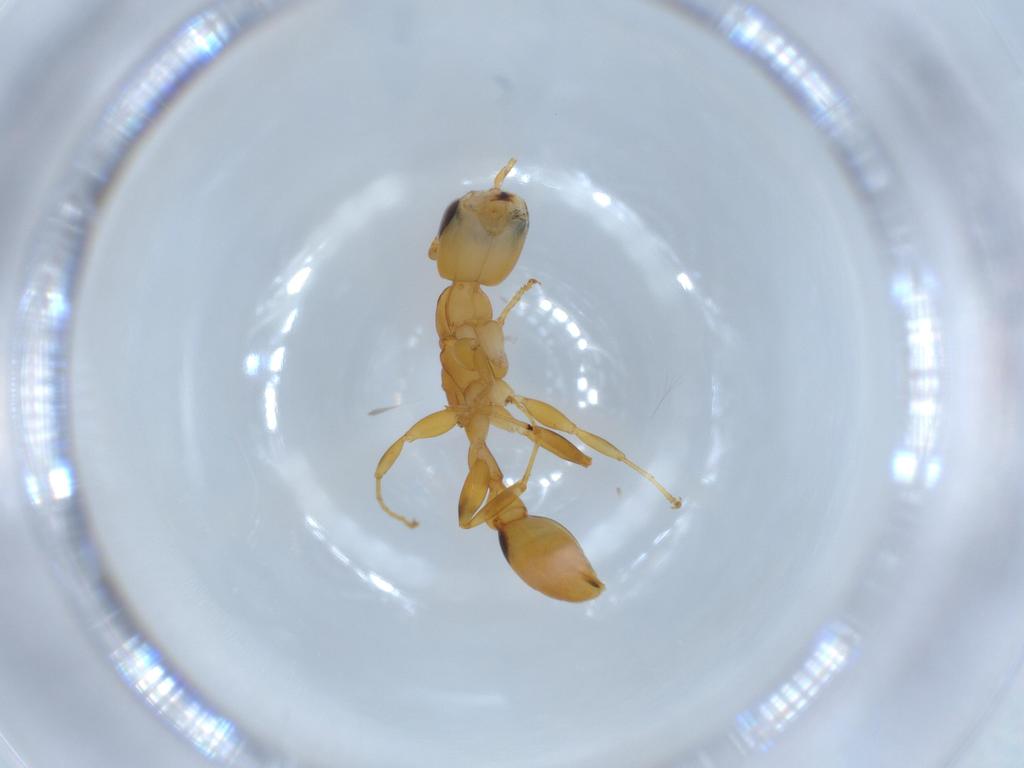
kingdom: Animalia
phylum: Arthropoda
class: Insecta
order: Hymenoptera
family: Formicidae
